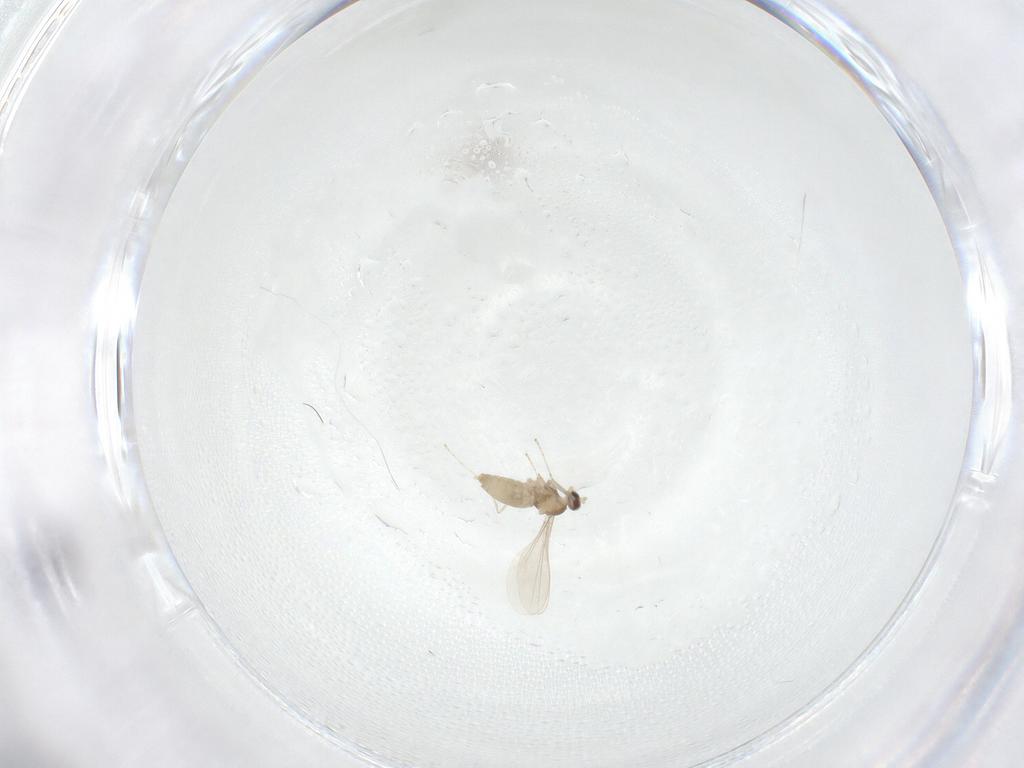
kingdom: Animalia
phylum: Arthropoda
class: Insecta
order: Diptera
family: Cecidomyiidae
